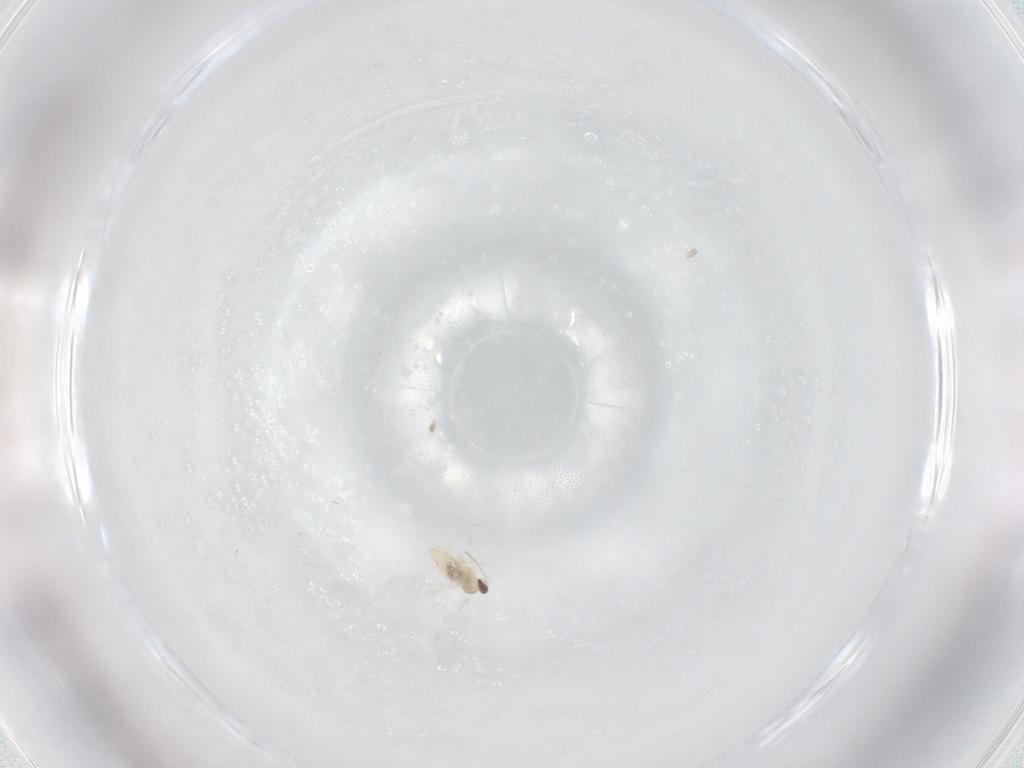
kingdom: Animalia
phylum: Arthropoda
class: Insecta
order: Diptera
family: Cecidomyiidae
